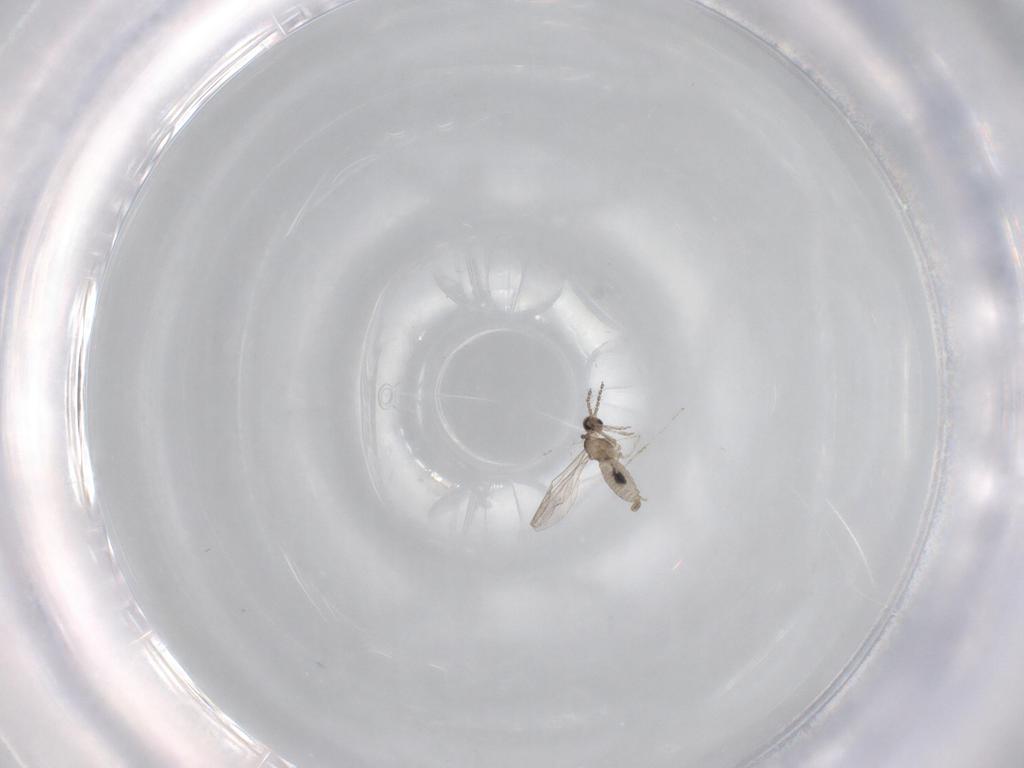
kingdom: Animalia
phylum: Arthropoda
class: Insecta
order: Diptera
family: Chironomidae
